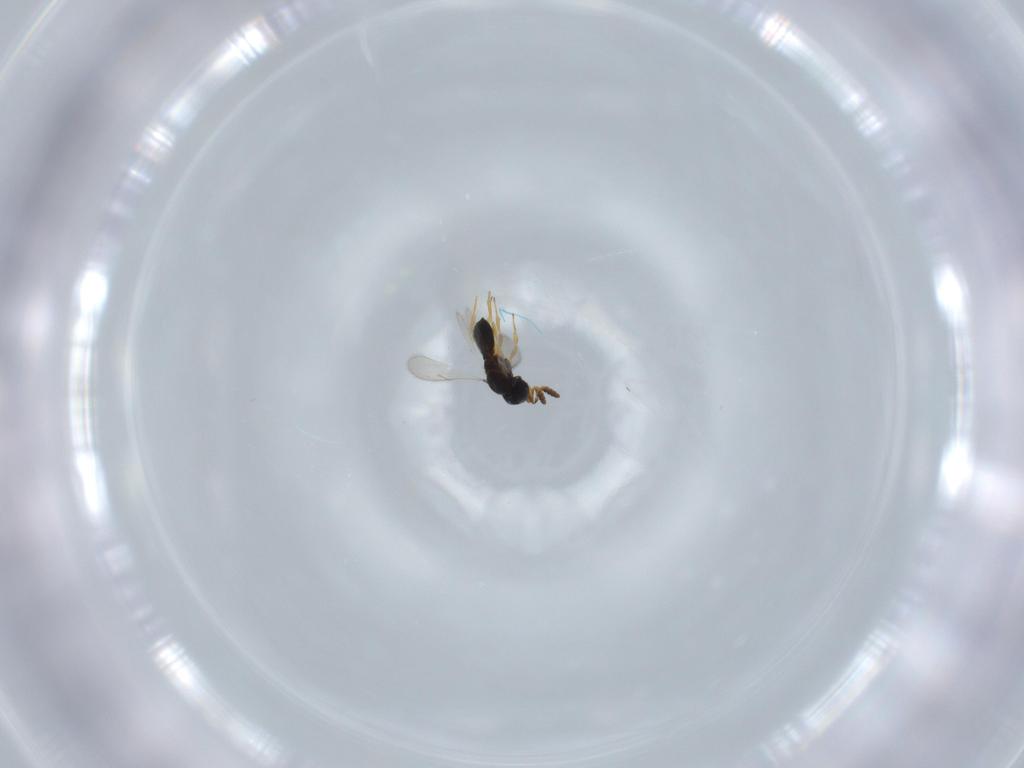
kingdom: Animalia
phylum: Arthropoda
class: Insecta
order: Hymenoptera
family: Scelionidae
